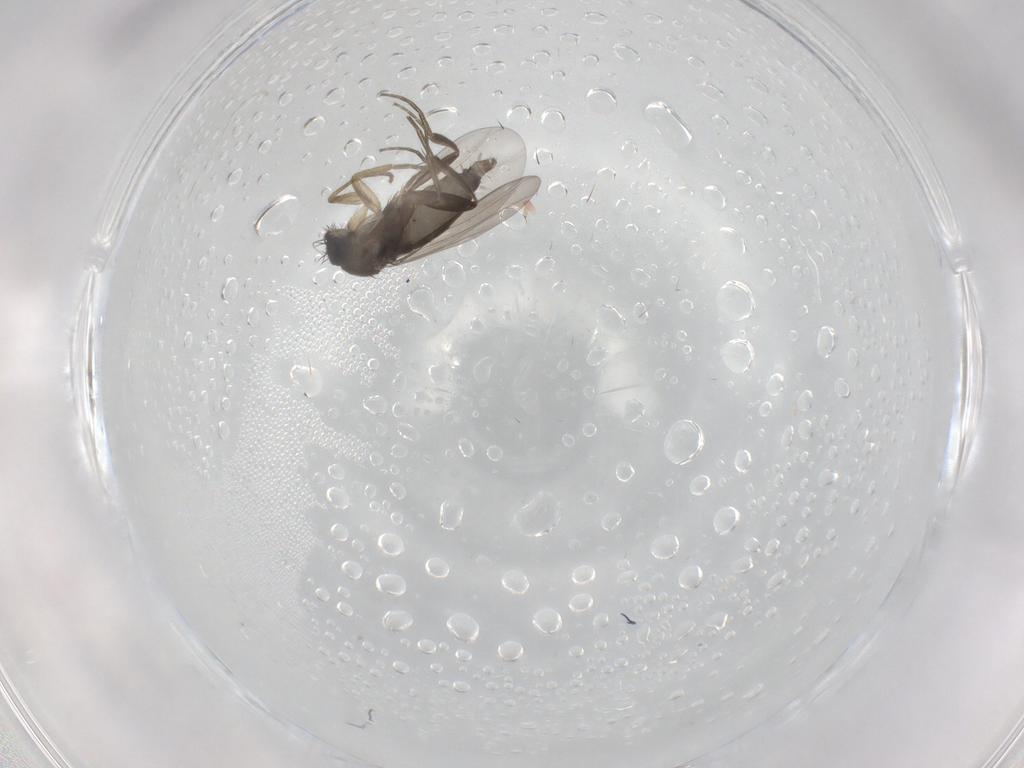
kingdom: Animalia
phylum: Arthropoda
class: Insecta
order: Diptera
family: Phoridae
